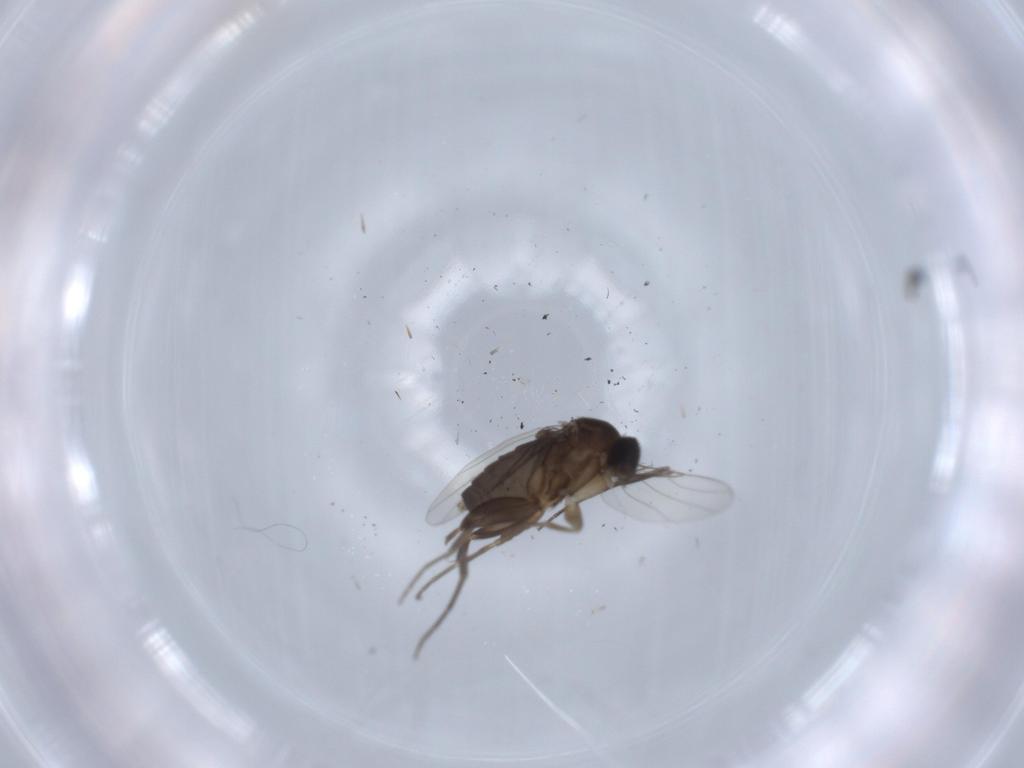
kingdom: Animalia
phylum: Arthropoda
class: Insecta
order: Diptera
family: Phoridae
